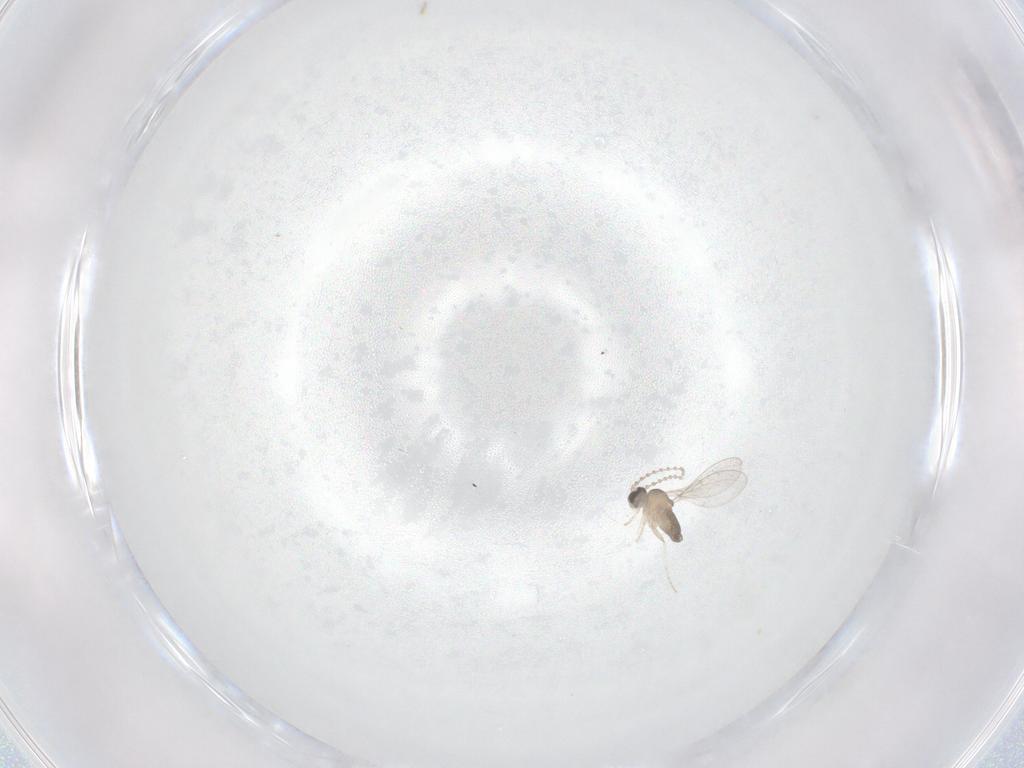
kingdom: Animalia
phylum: Arthropoda
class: Insecta
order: Diptera
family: Cecidomyiidae
